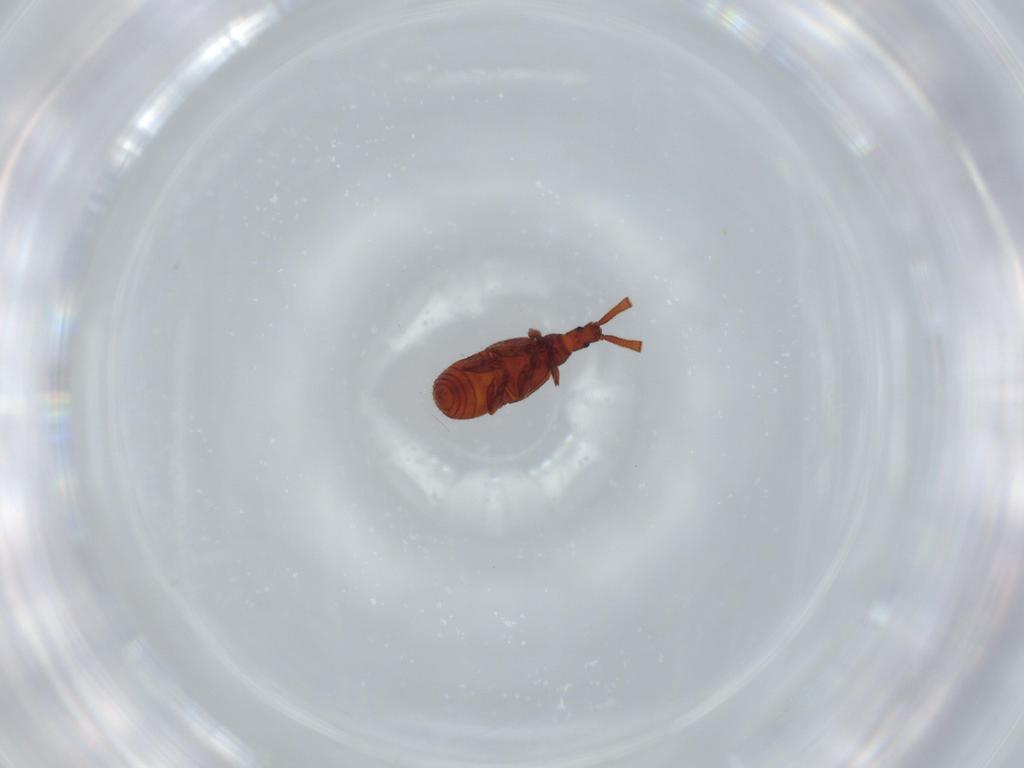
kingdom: Animalia
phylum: Arthropoda
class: Insecta
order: Coleoptera
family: Staphylinidae
